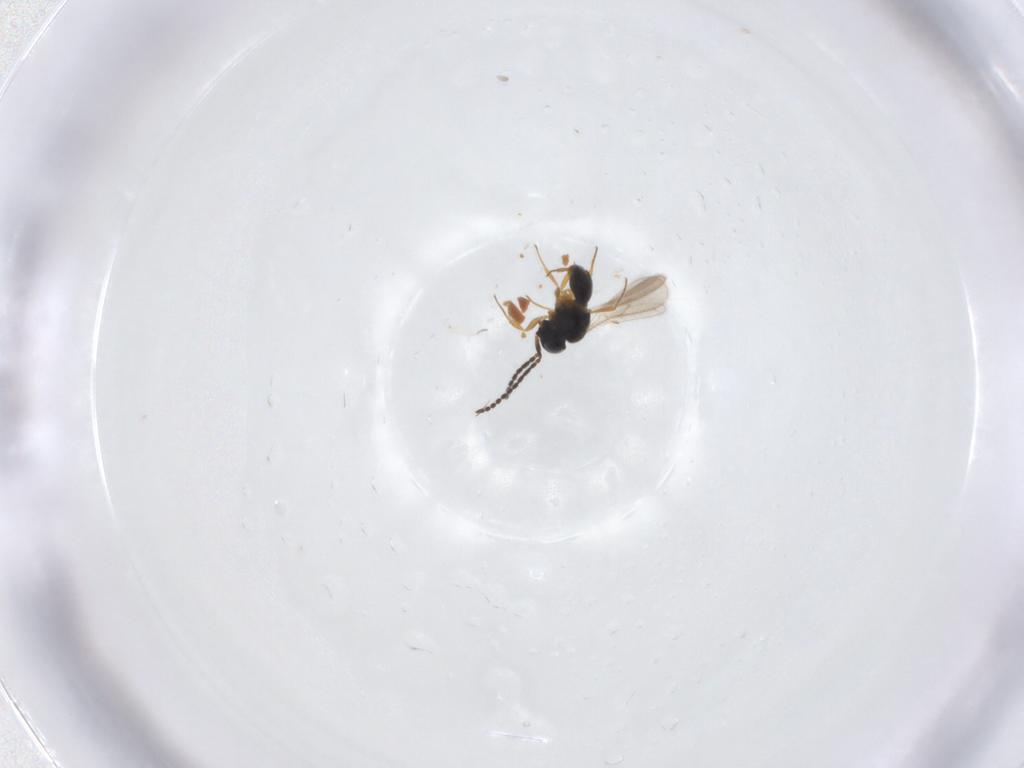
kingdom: Animalia
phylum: Arthropoda
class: Insecta
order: Hymenoptera
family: Scelionidae
